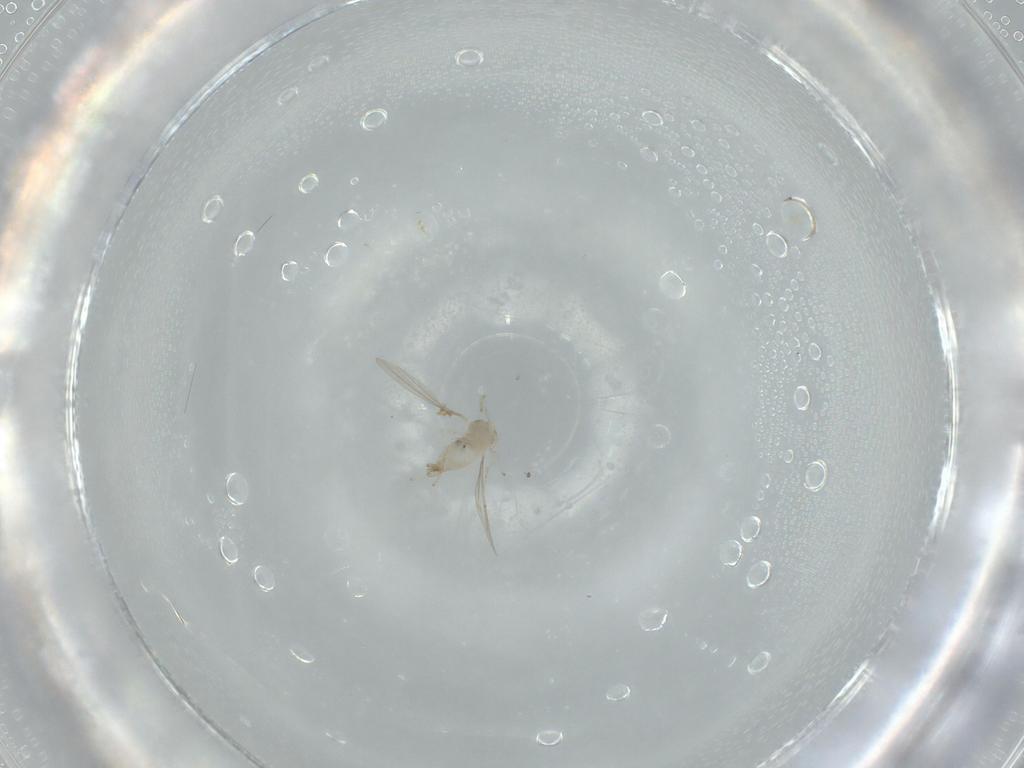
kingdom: Animalia
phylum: Arthropoda
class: Insecta
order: Diptera
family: Cecidomyiidae
